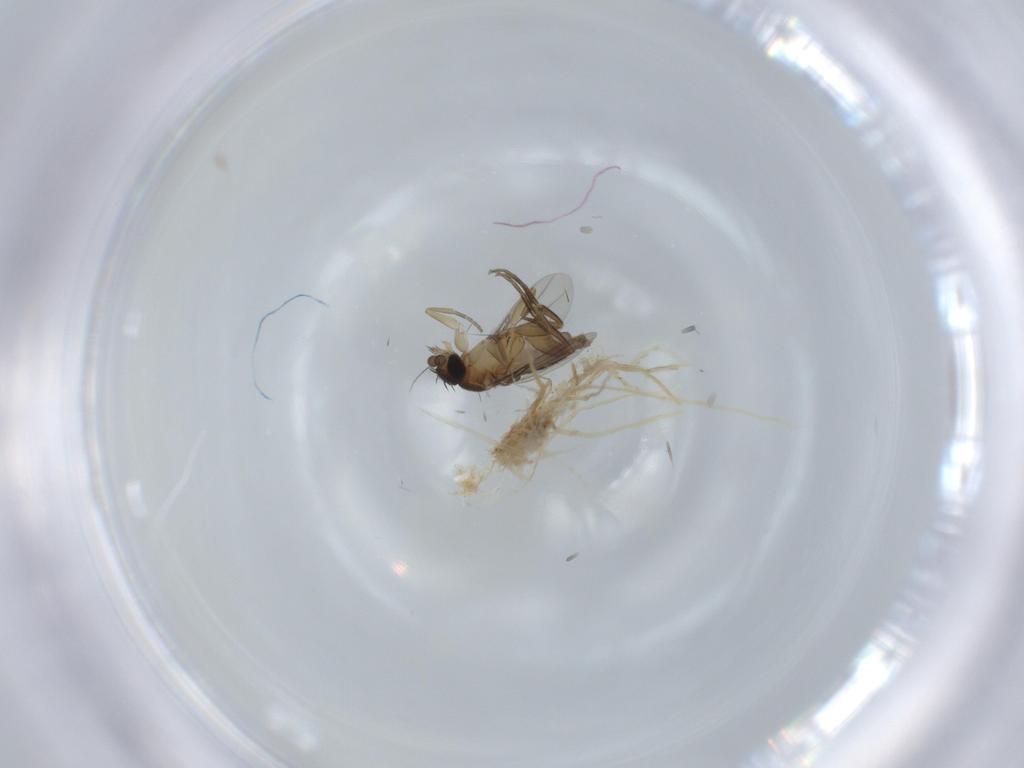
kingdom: Animalia
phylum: Arthropoda
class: Insecta
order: Diptera
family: Phoridae
